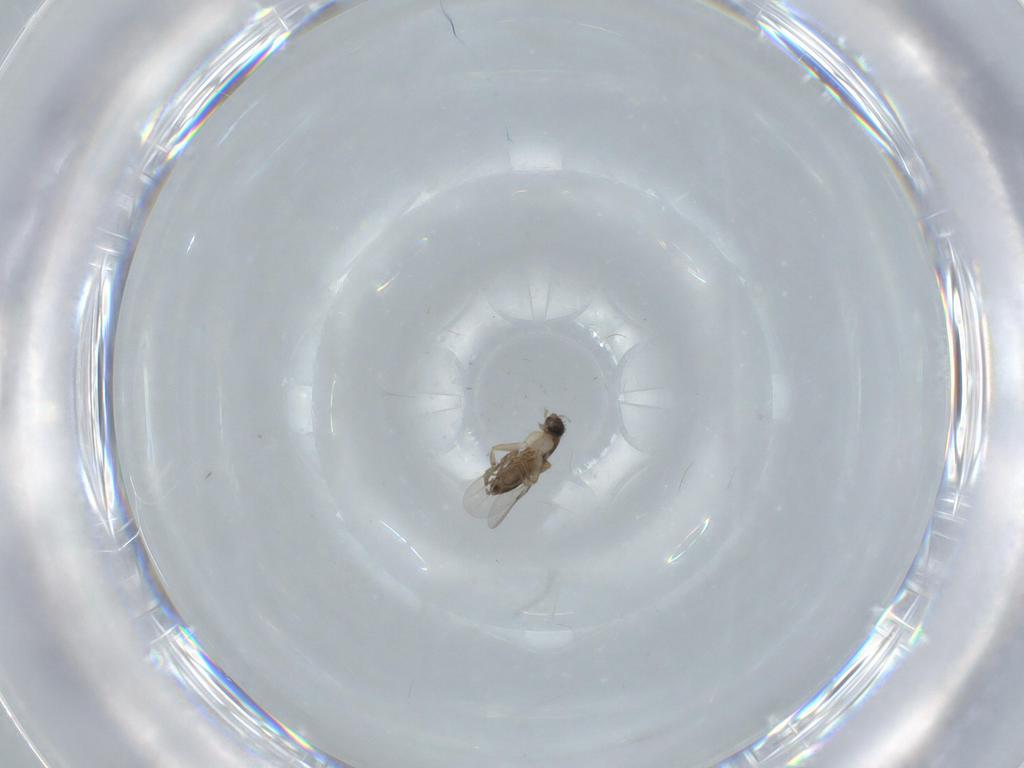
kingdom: Animalia
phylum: Arthropoda
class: Insecta
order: Diptera
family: Phoridae
